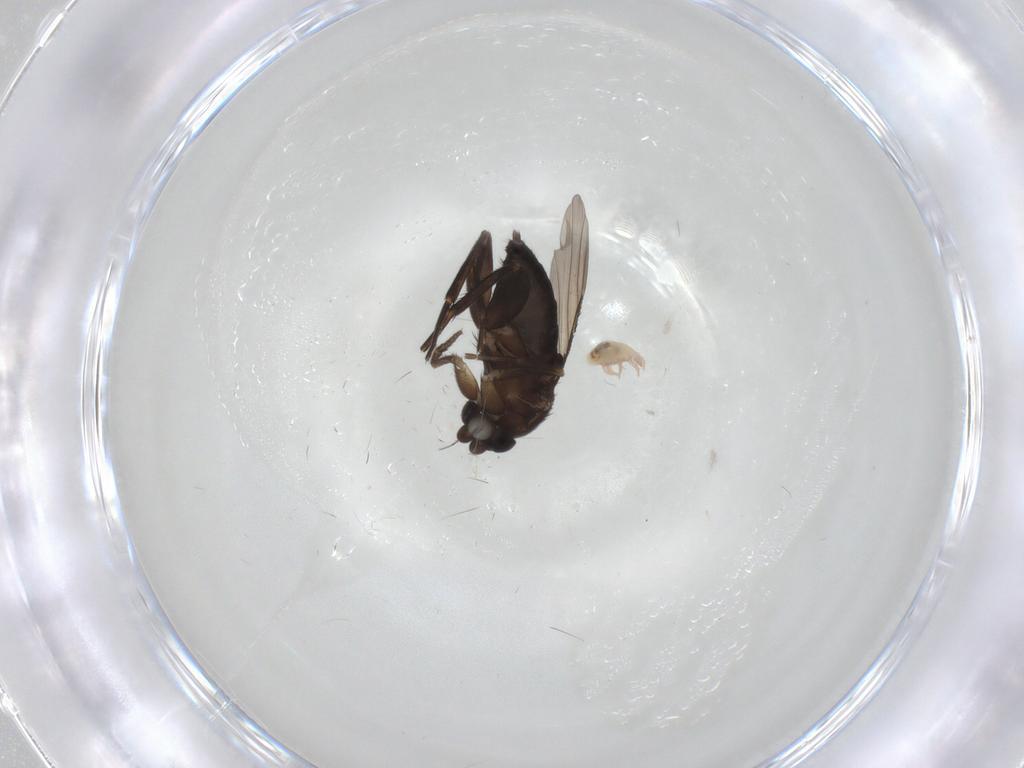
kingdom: Animalia
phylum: Arthropoda
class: Insecta
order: Diptera
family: Phoridae
